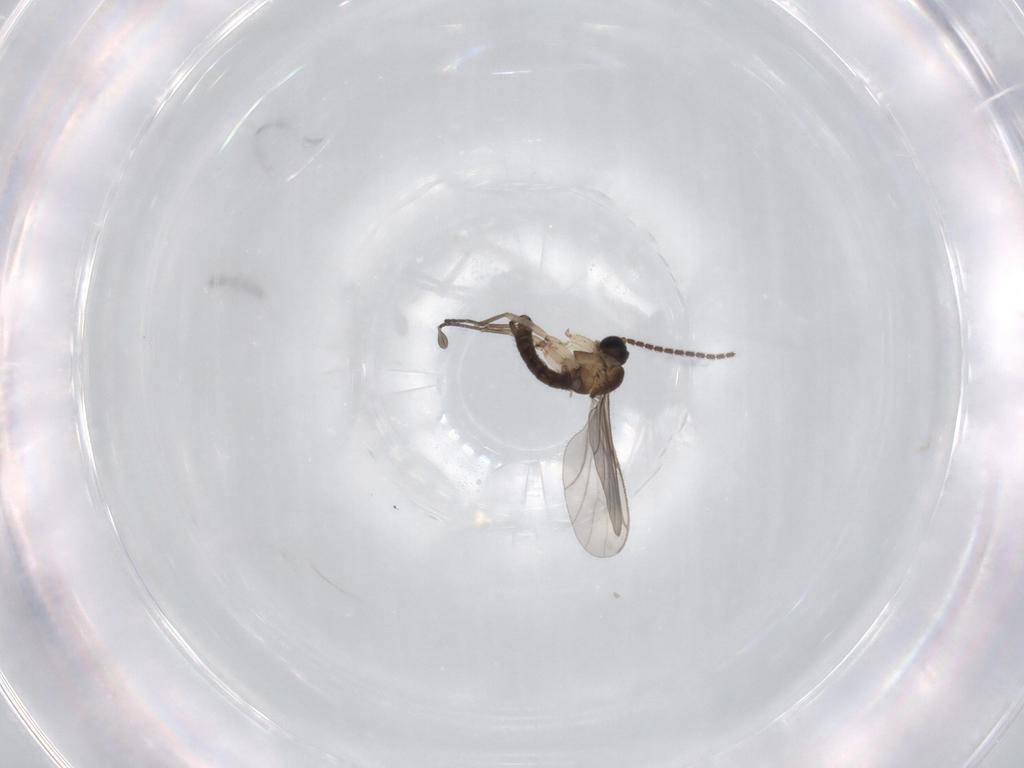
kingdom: Animalia
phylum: Arthropoda
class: Insecta
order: Diptera
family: Sciaridae
